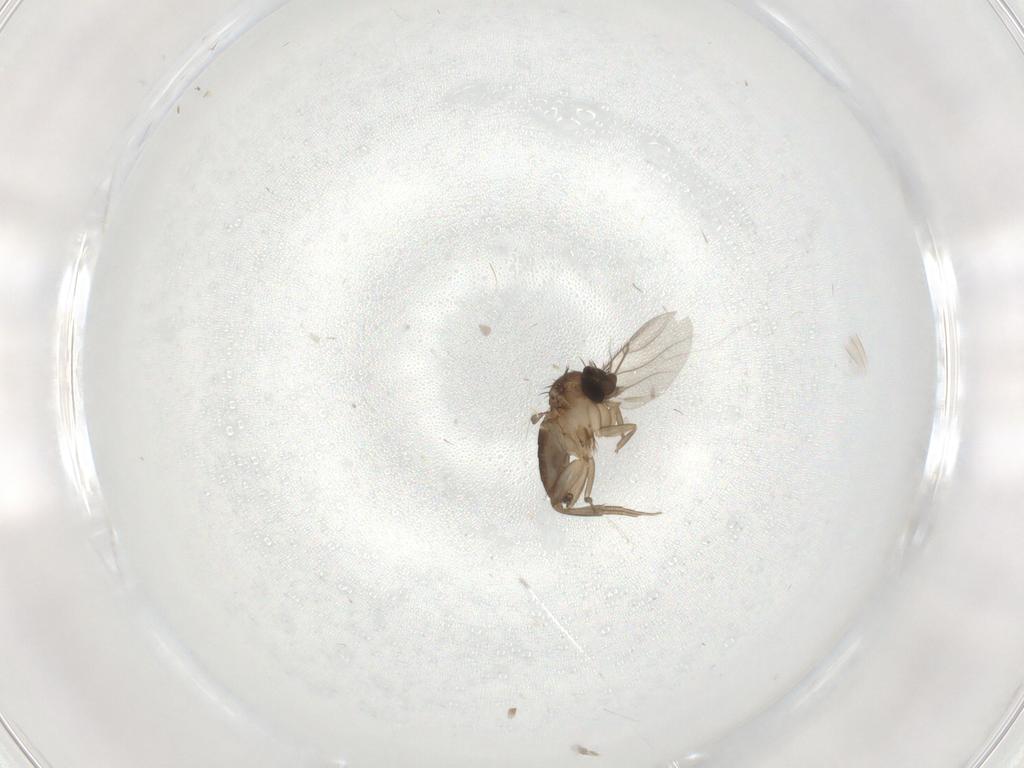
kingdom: Animalia
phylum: Arthropoda
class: Insecta
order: Diptera
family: Phoridae
